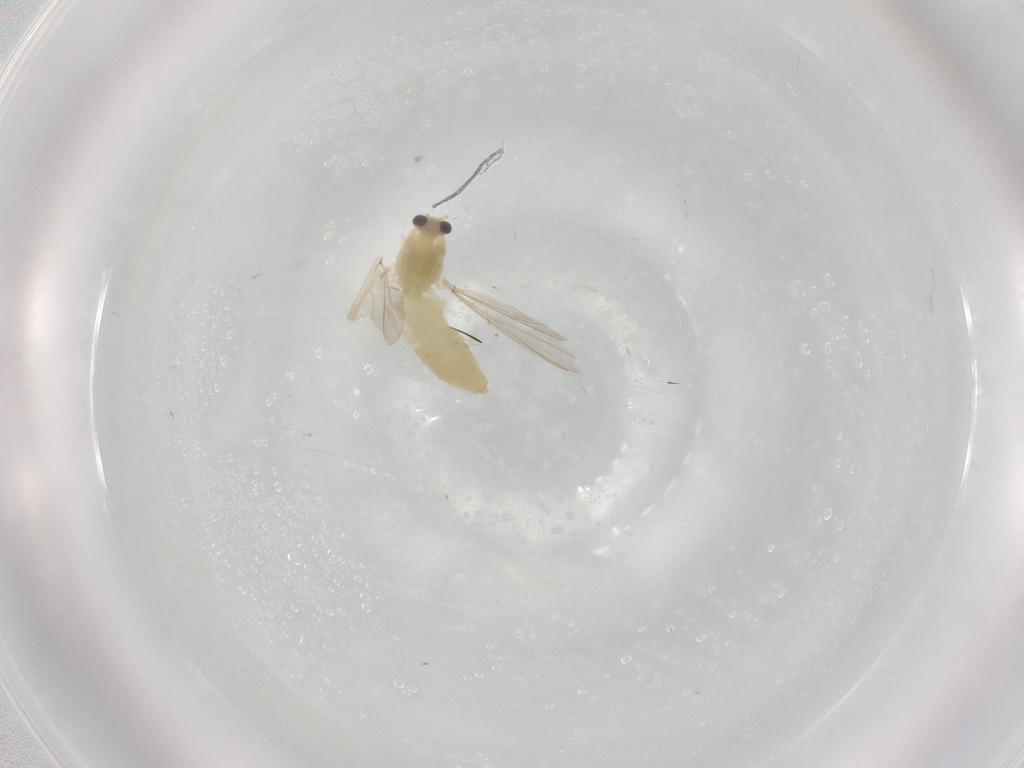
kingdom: Animalia
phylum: Arthropoda
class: Insecta
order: Diptera
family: Chironomidae
